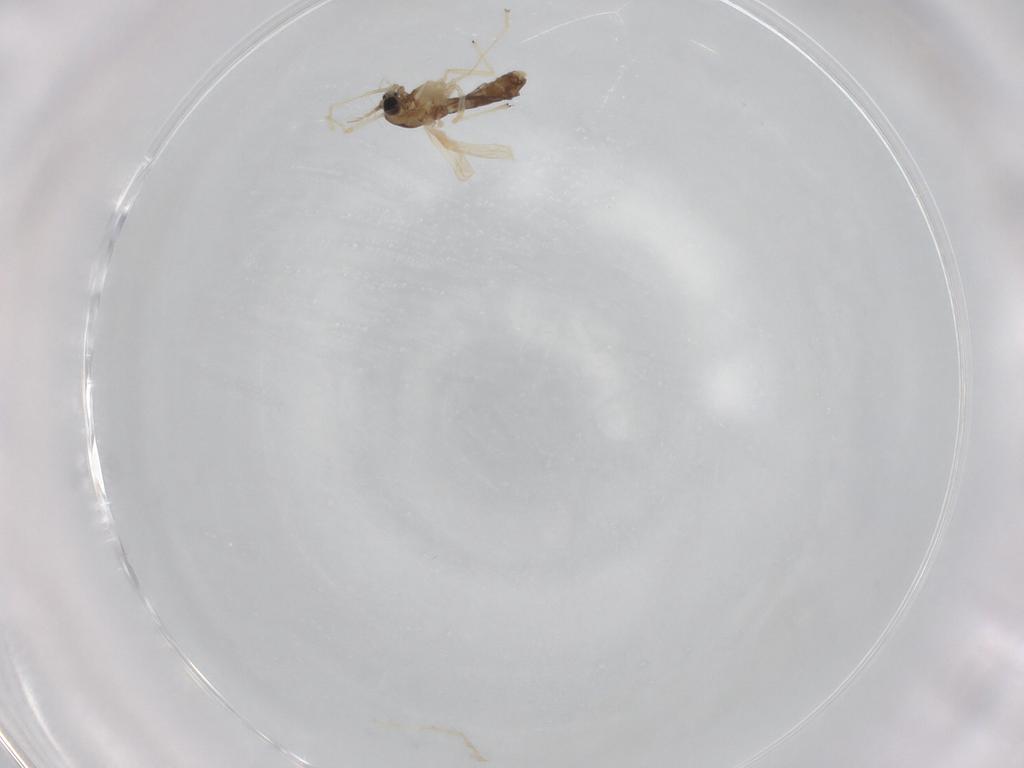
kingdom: Animalia
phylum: Arthropoda
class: Insecta
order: Diptera
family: Chironomidae
